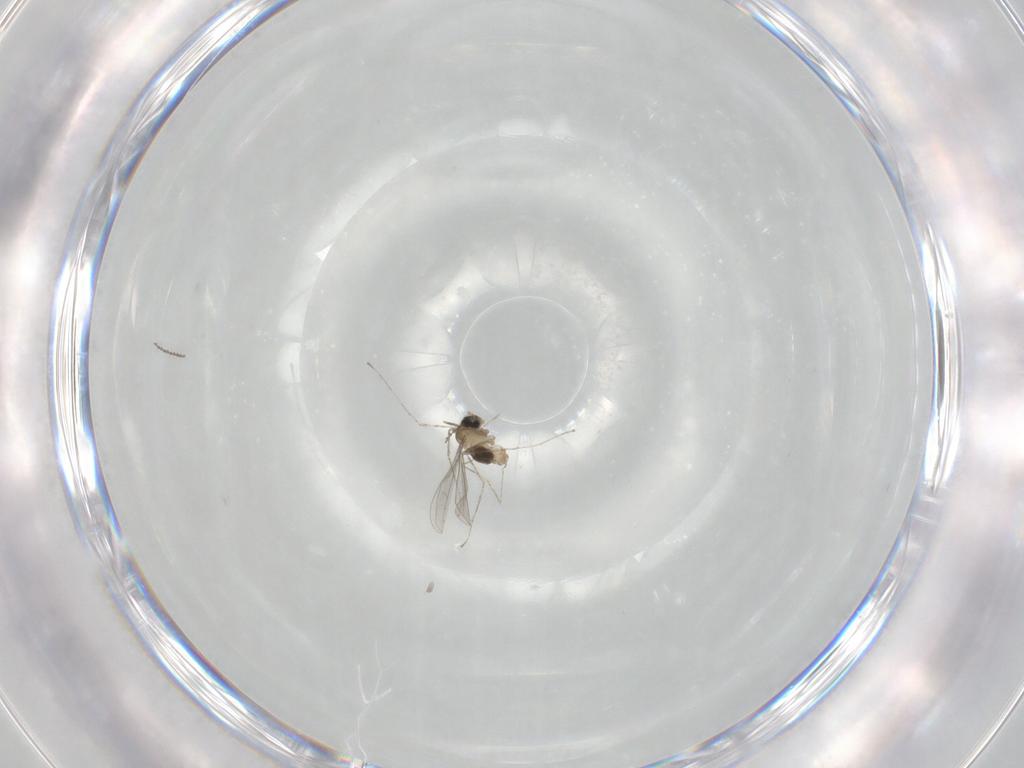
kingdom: Animalia
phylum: Arthropoda
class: Insecta
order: Diptera
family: Cecidomyiidae
